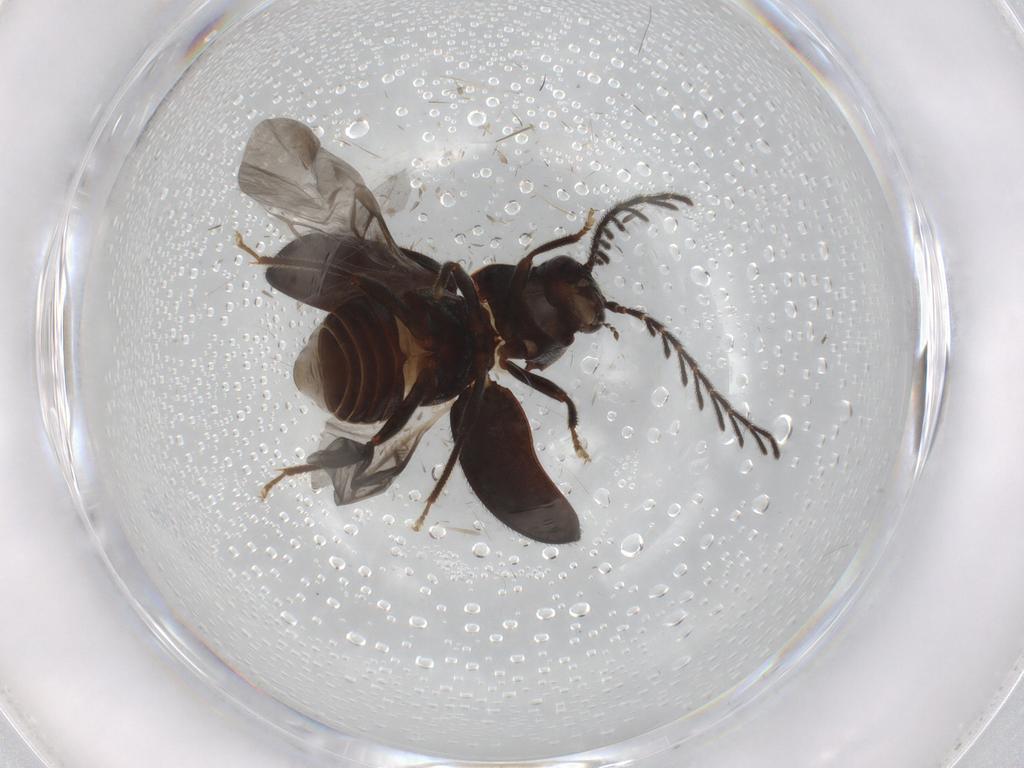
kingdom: Animalia
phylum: Arthropoda
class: Insecta
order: Coleoptera
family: Ptilodactylidae
